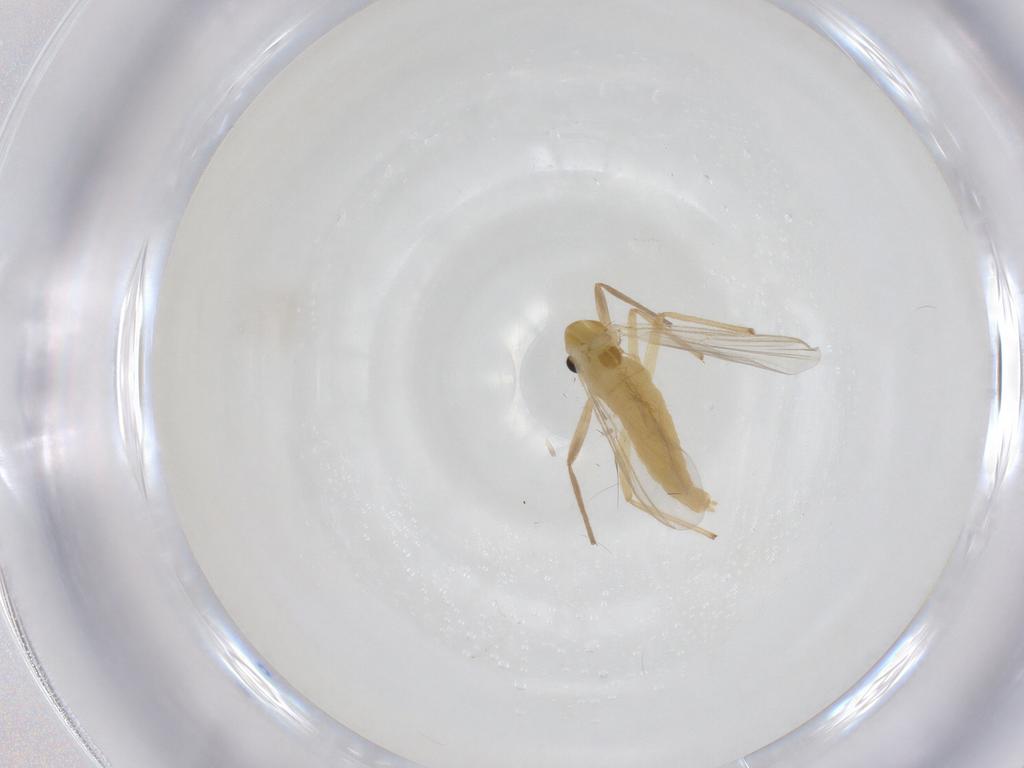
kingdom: Animalia
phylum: Arthropoda
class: Insecta
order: Diptera
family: Chironomidae
